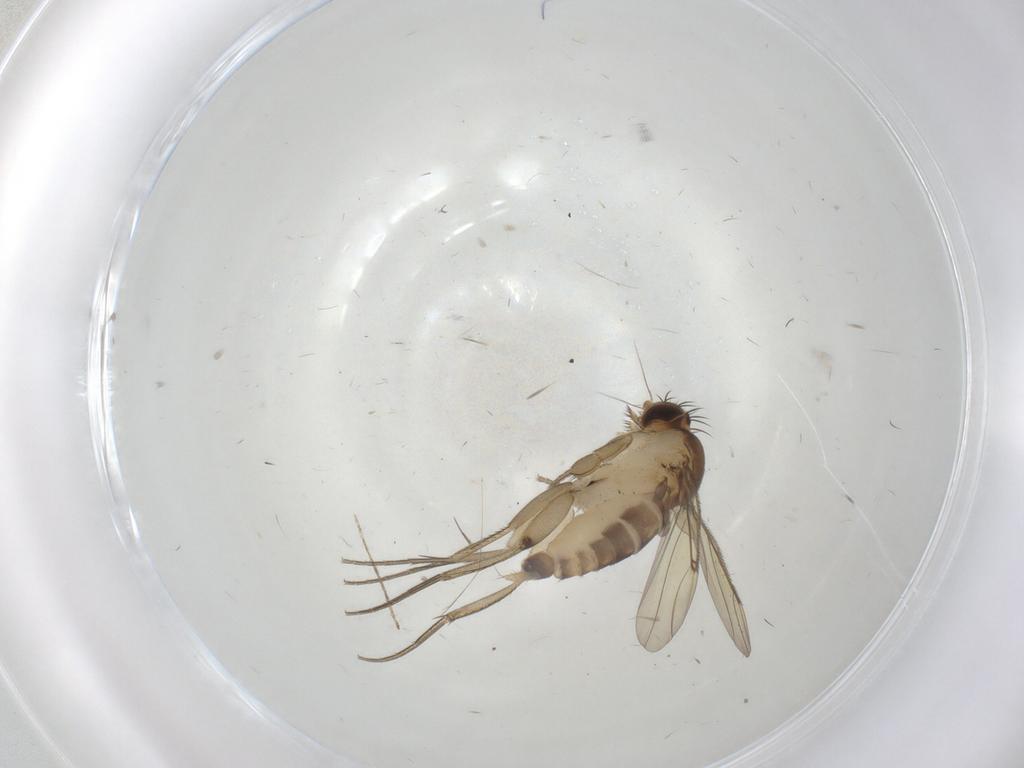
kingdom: Animalia
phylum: Arthropoda
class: Insecta
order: Diptera
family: Phoridae
